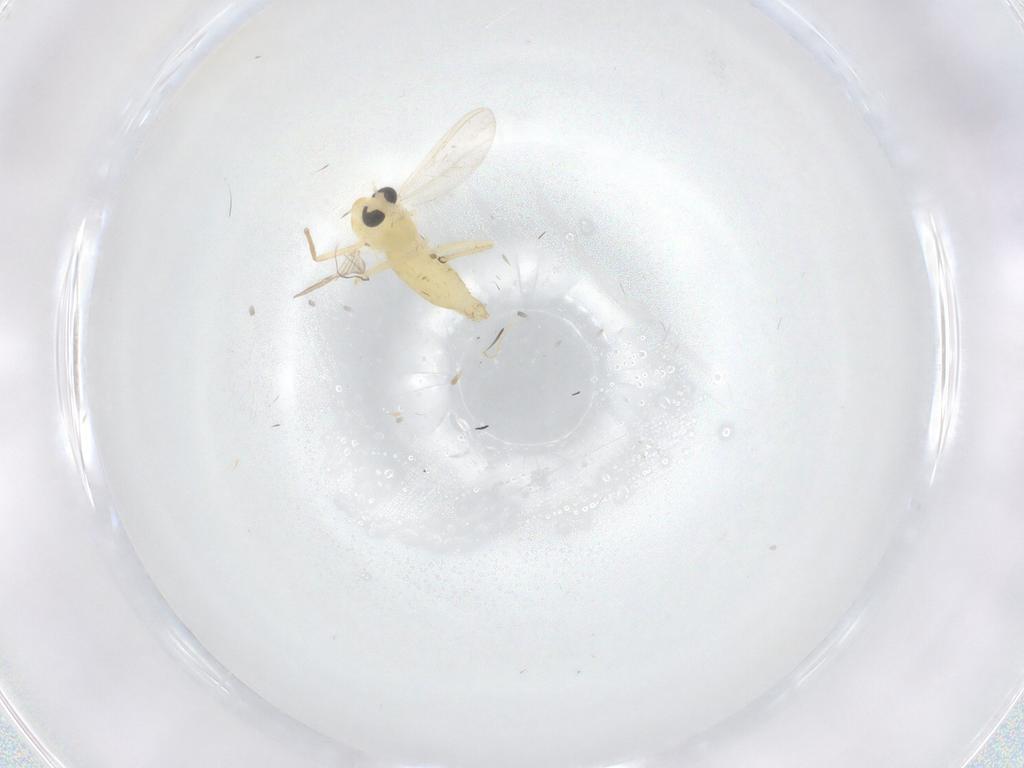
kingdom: Animalia
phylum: Arthropoda
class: Insecta
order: Diptera
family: Chironomidae
